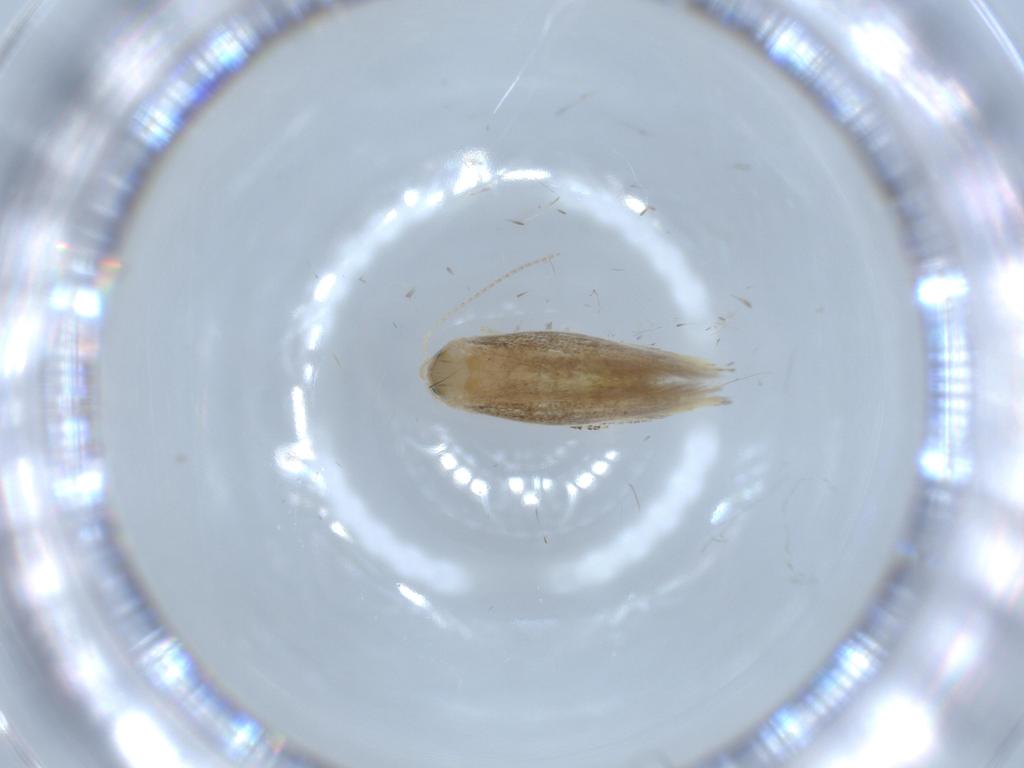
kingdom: Animalia
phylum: Arthropoda
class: Insecta
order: Lepidoptera
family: Bucculatricidae
